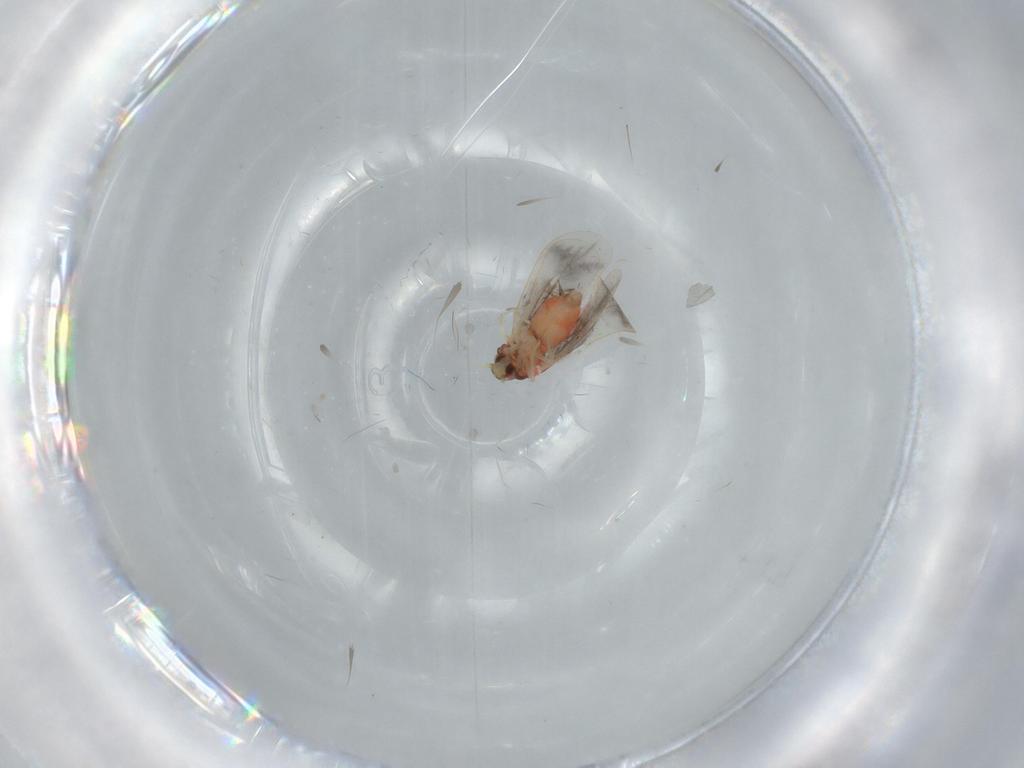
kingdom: Animalia
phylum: Arthropoda
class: Insecta
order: Hemiptera
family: Aleyrodidae
